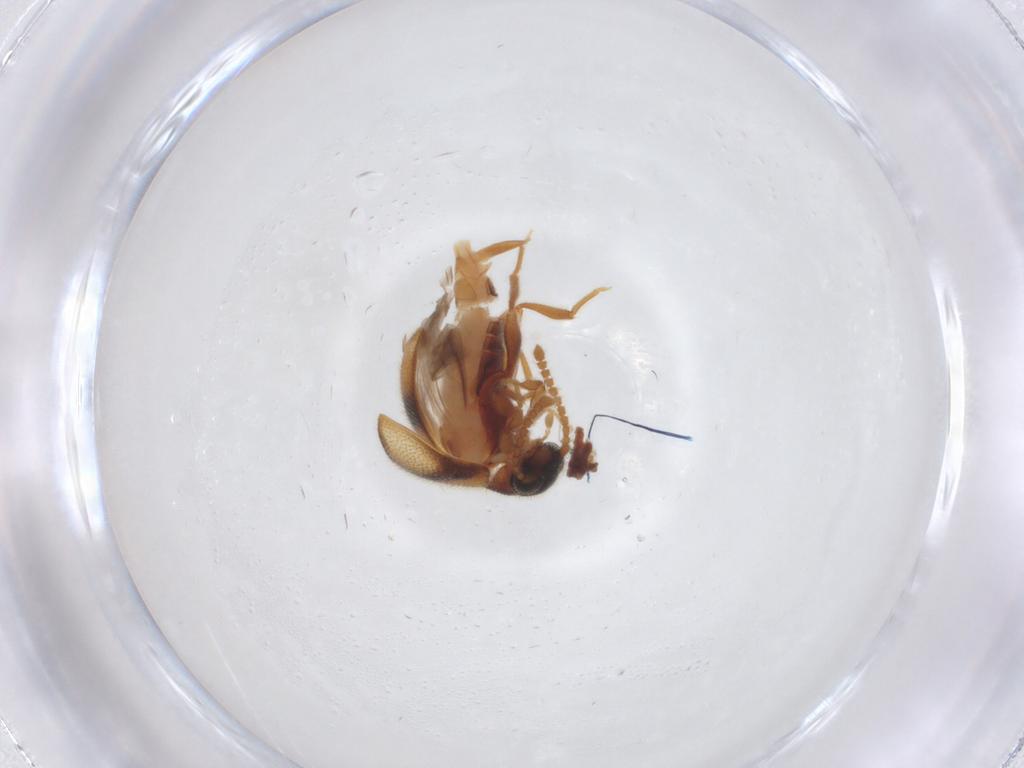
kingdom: Animalia
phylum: Arthropoda
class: Insecta
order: Coleoptera
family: Aderidae
